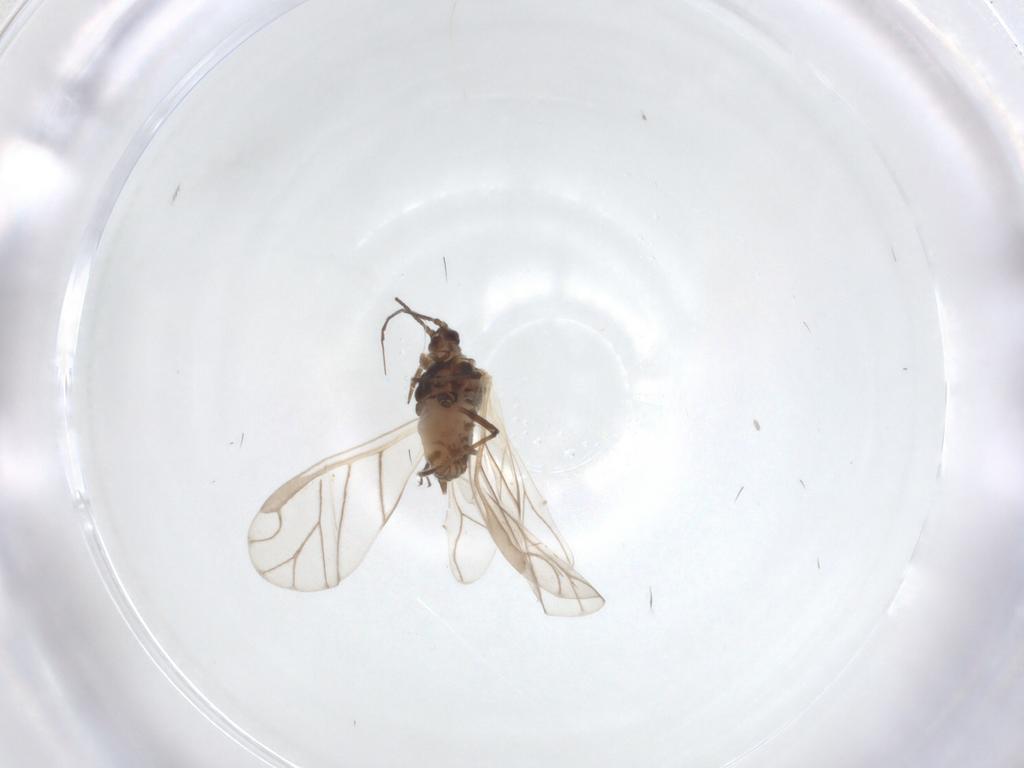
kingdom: Animalia
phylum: Arthropoda
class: Insecta
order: Hemiptera
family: Aphididae
